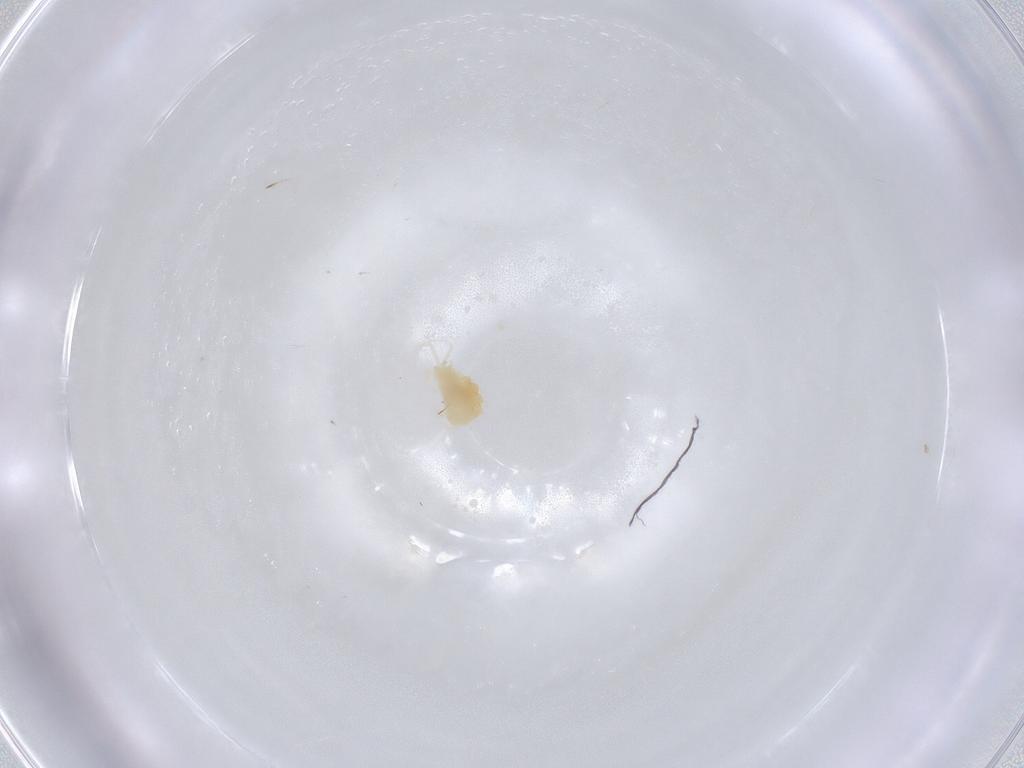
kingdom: Animalia
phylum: Arthropoda
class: Arachnida
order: Trombidiformes
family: Tetranychidae
